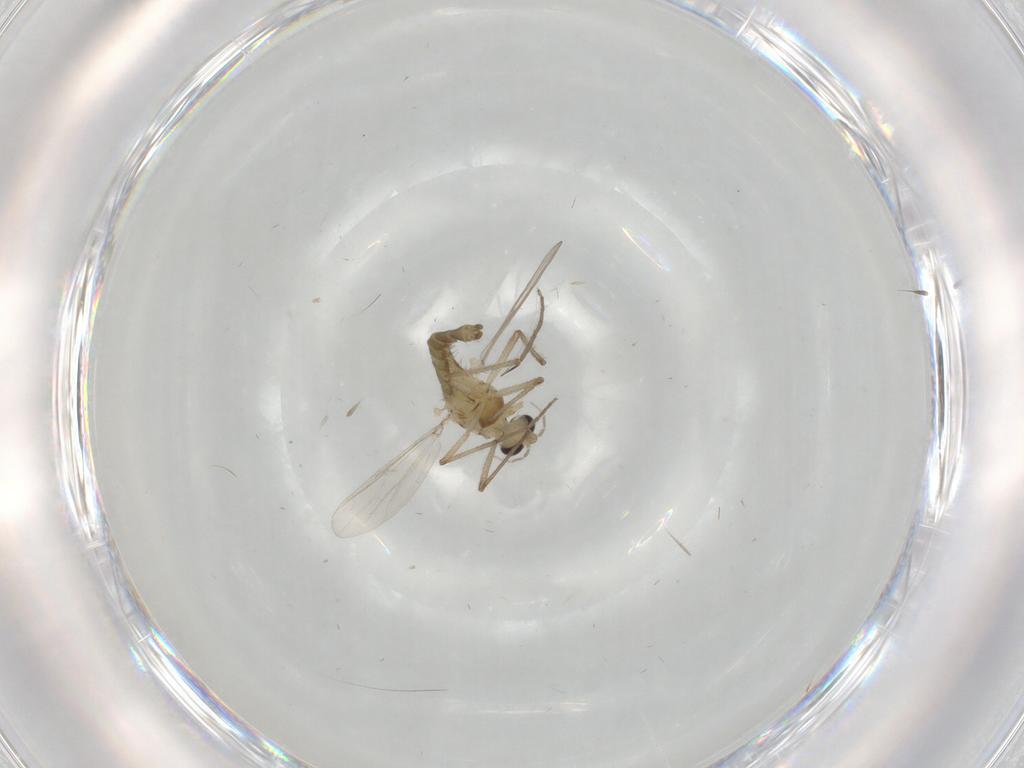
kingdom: Animalia
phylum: Arthropoda
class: Insecta
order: Diptera
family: Chironomidae
